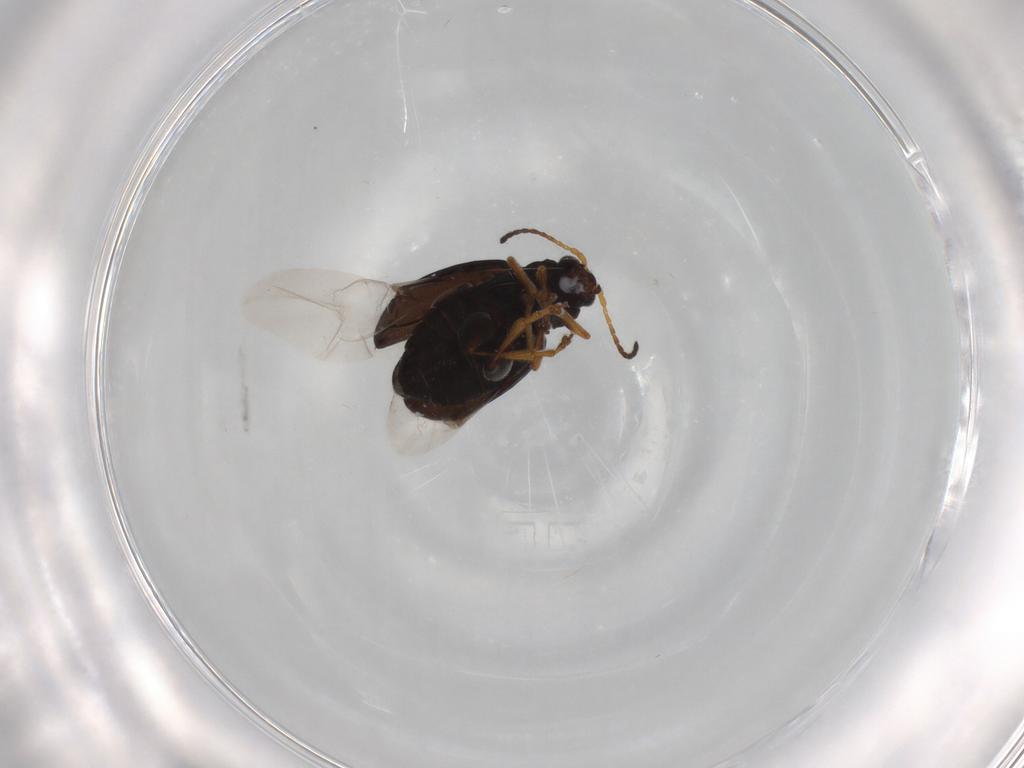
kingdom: Animalia
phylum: Arthropoda
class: Insecta
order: Coleoptera
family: Chrysomelidae
